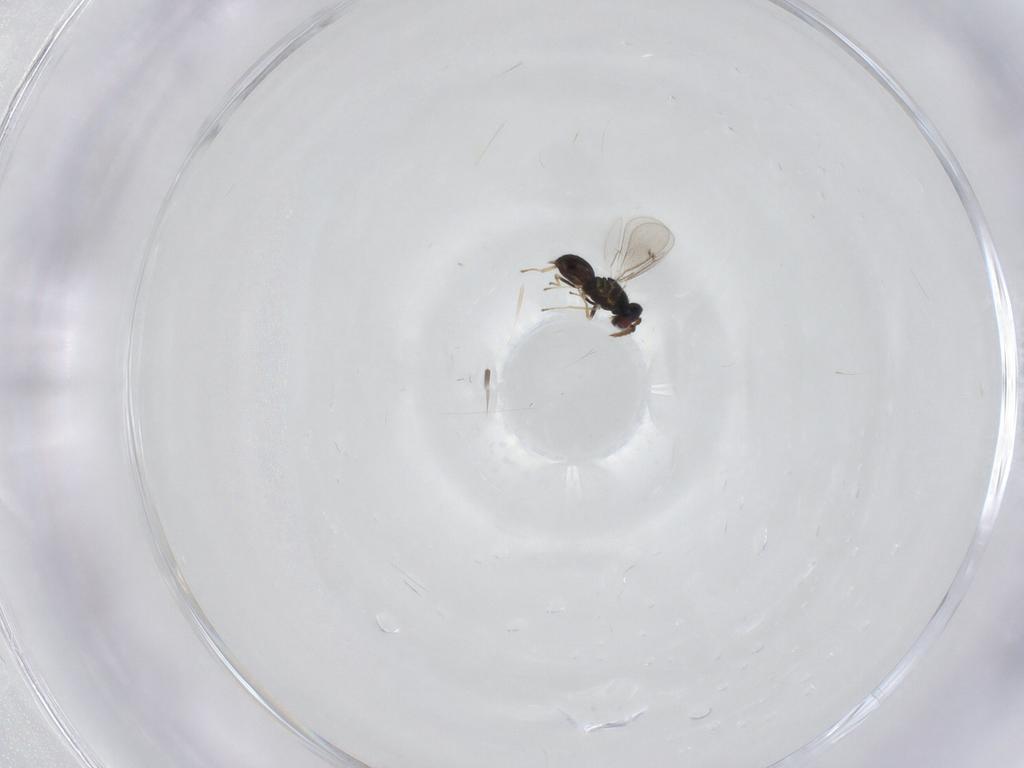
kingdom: Animalia
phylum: Arthropoda
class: Insecta
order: Hymenoptera
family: Eulophidae
